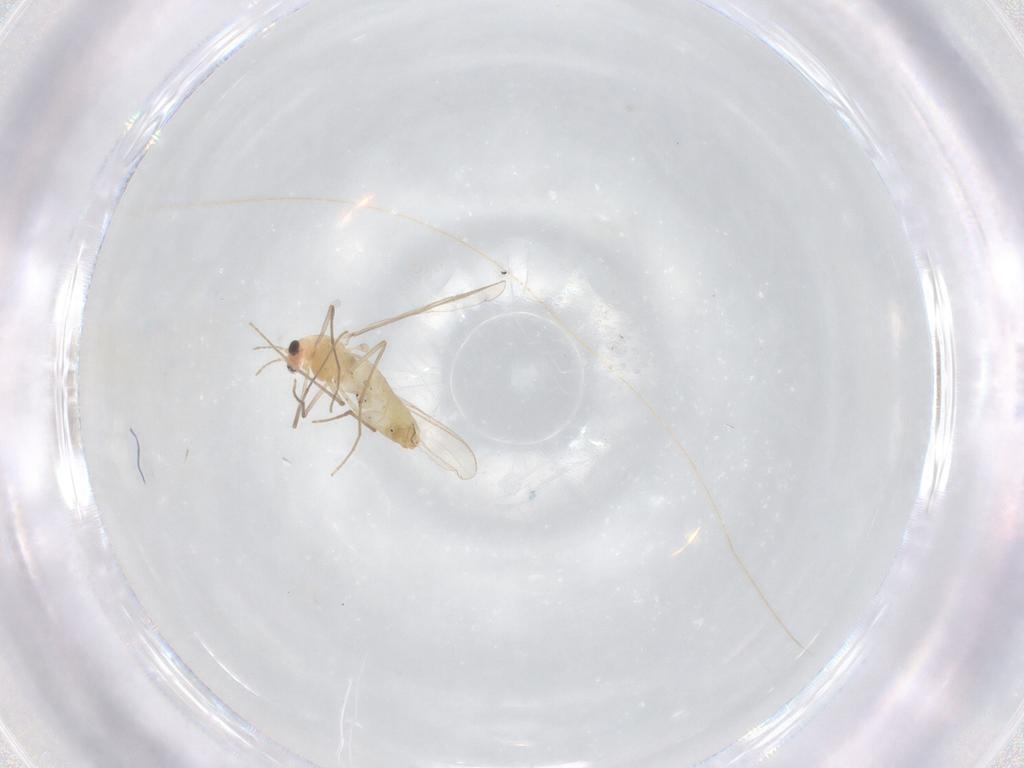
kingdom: Animalia
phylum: Arthropoda
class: Insecta
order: Diptera
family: Chironomidae
